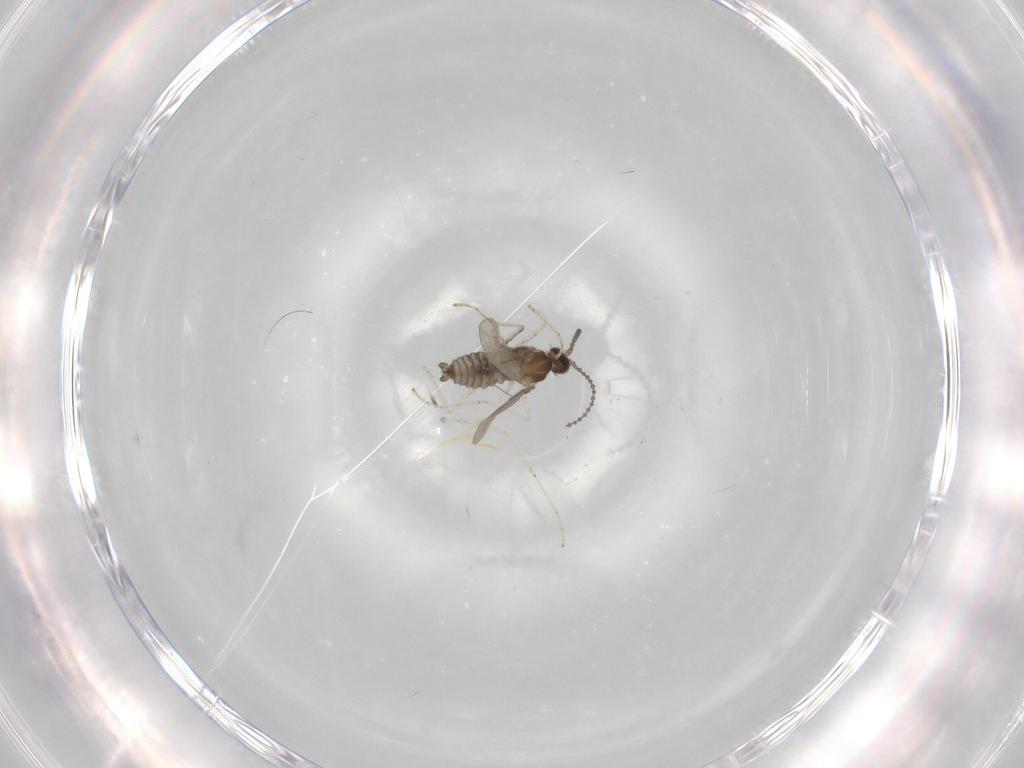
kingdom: Animalia
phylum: Arthropoda
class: Insecta
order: Diptera
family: Cecidomyiidae
